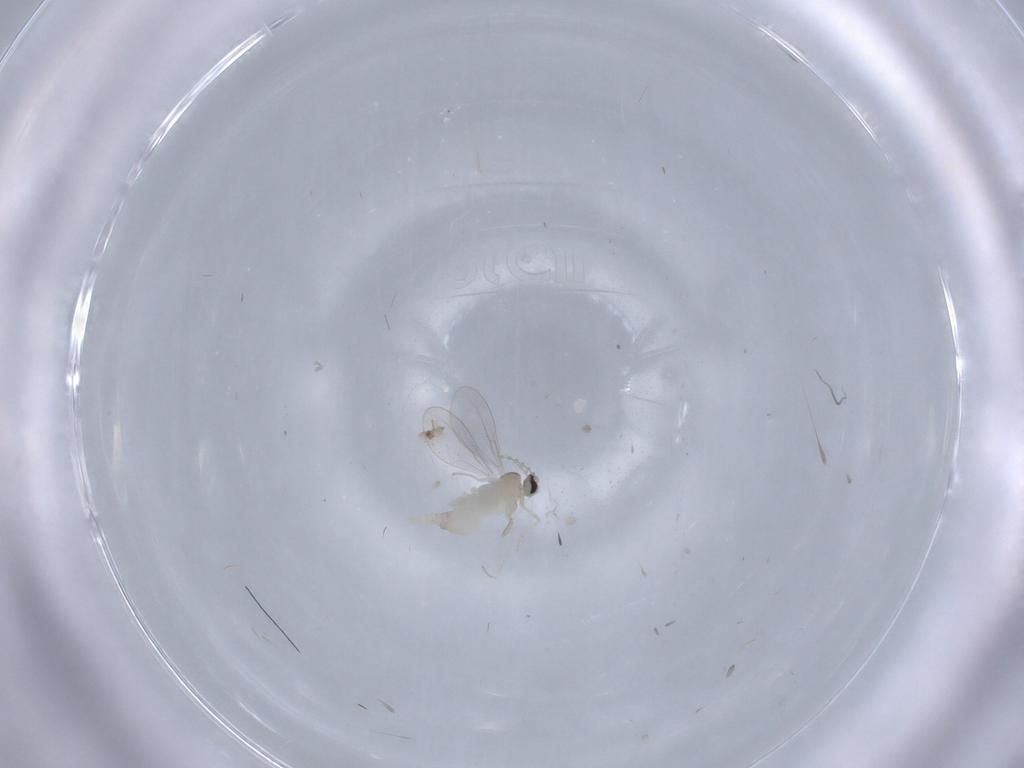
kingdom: Animalia
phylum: Arthropoda
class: Insecta
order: Diptera
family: Cecidomyiidae
